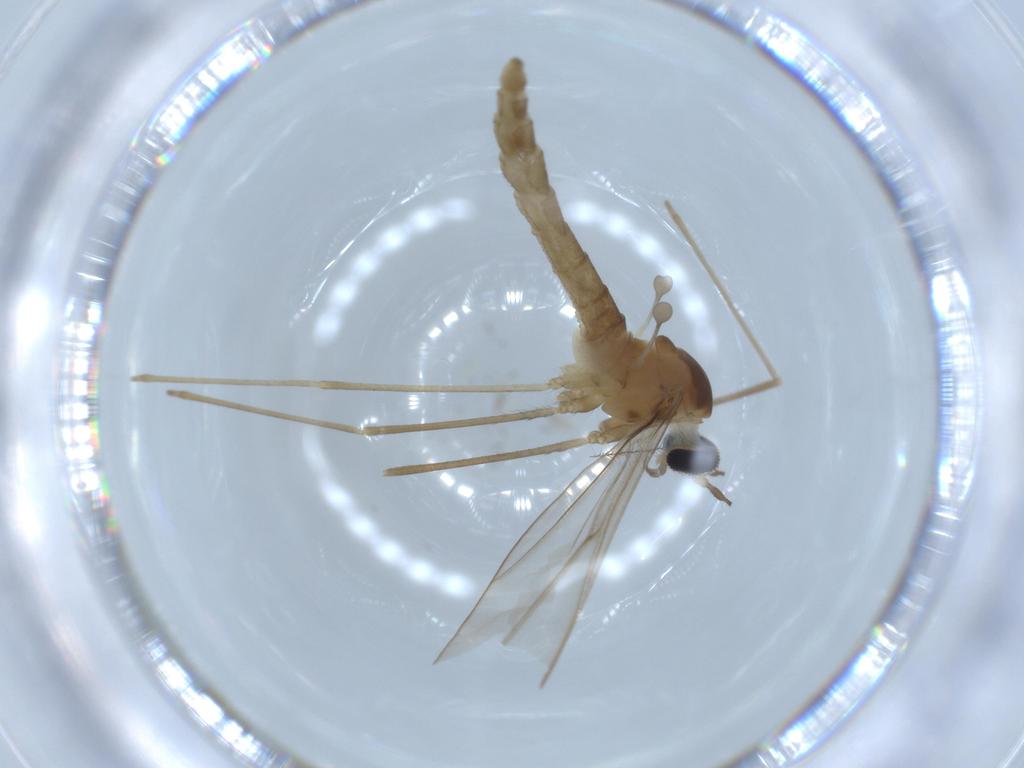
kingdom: Animalia
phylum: Arthropoda
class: Insecta
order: Diptera
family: Cecidomyiidae
